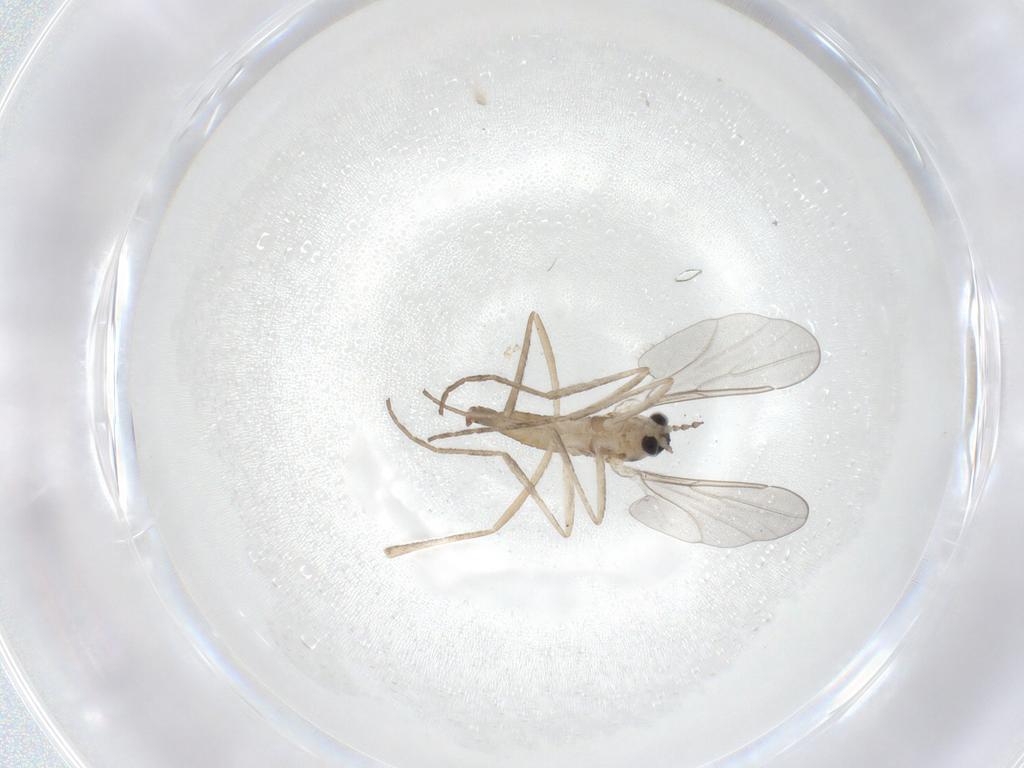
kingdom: Animalia
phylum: Arthropoda
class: Insecta
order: Diptera
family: Cecidomyiidae
